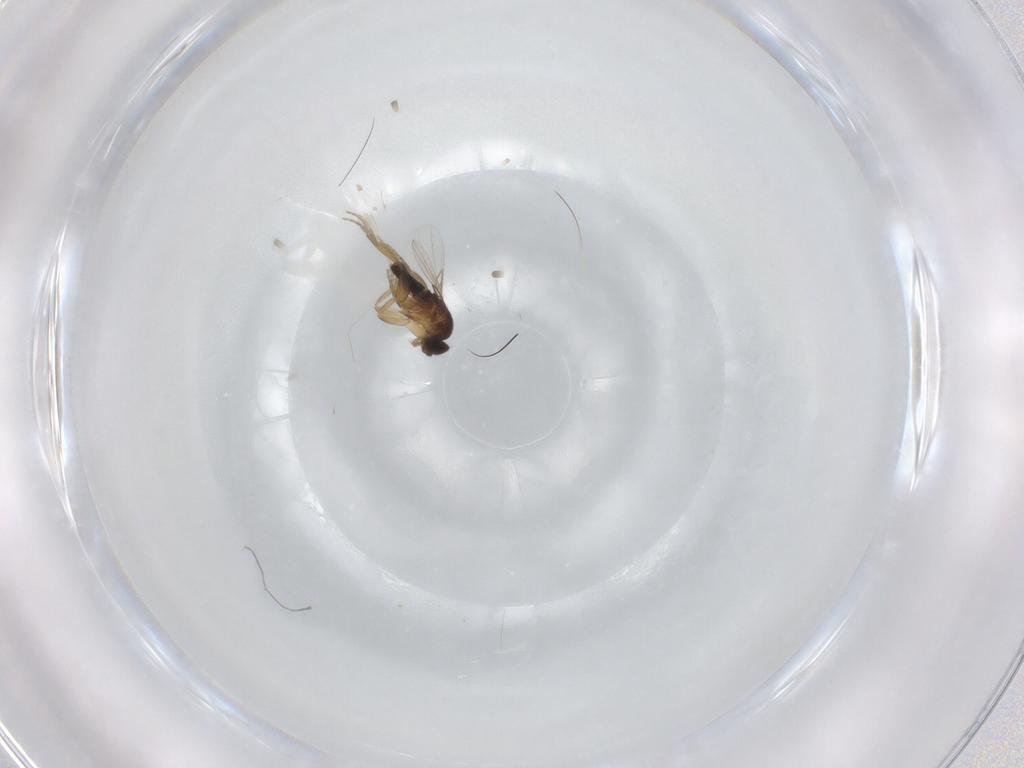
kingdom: Animalia
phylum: Arthropoda
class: Insecta
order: Diptera
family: Phoridae
